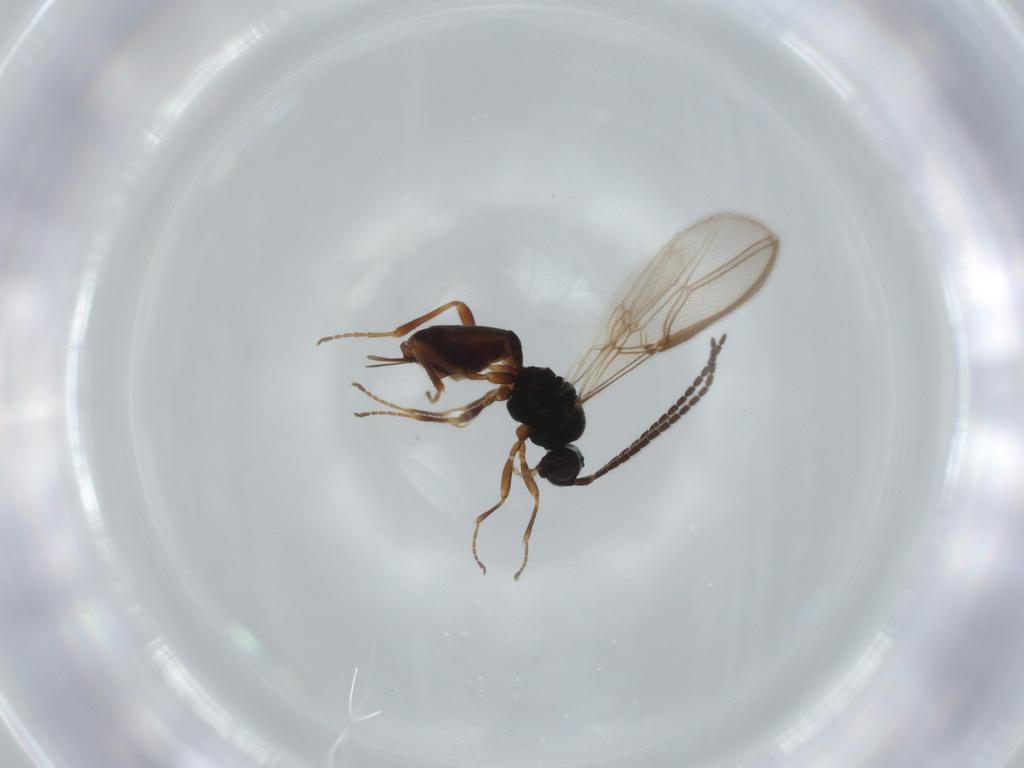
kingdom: Animalia
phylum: Arthropoda
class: Insecta
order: Hymenoptera
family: Braconidae
